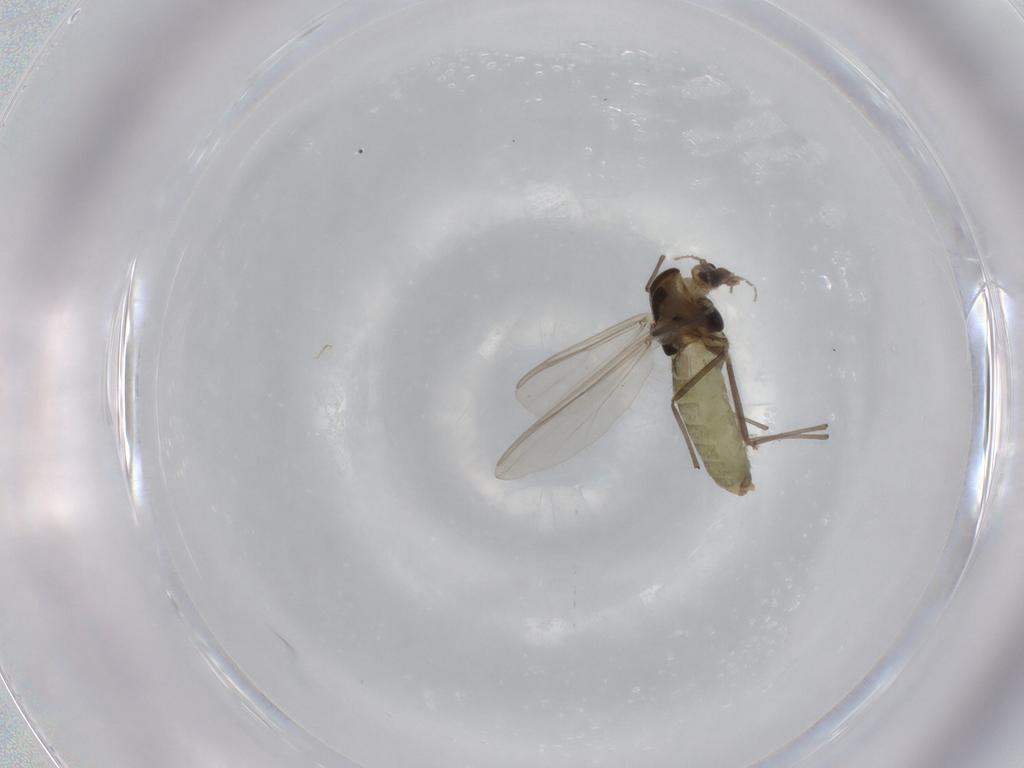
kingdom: Animalia
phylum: Arthropoda
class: Insecta
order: Diptera
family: Chironomidae
